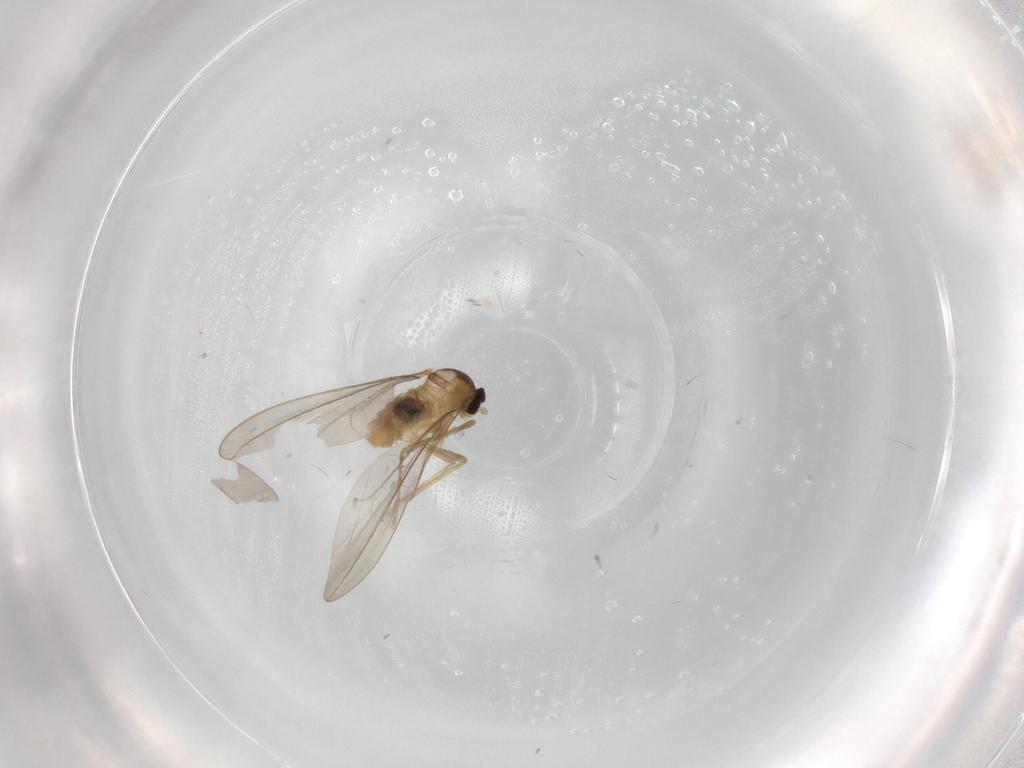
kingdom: Animalia
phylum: Arthropoda
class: Insecta
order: Diptera
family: Cecidomyiidae
